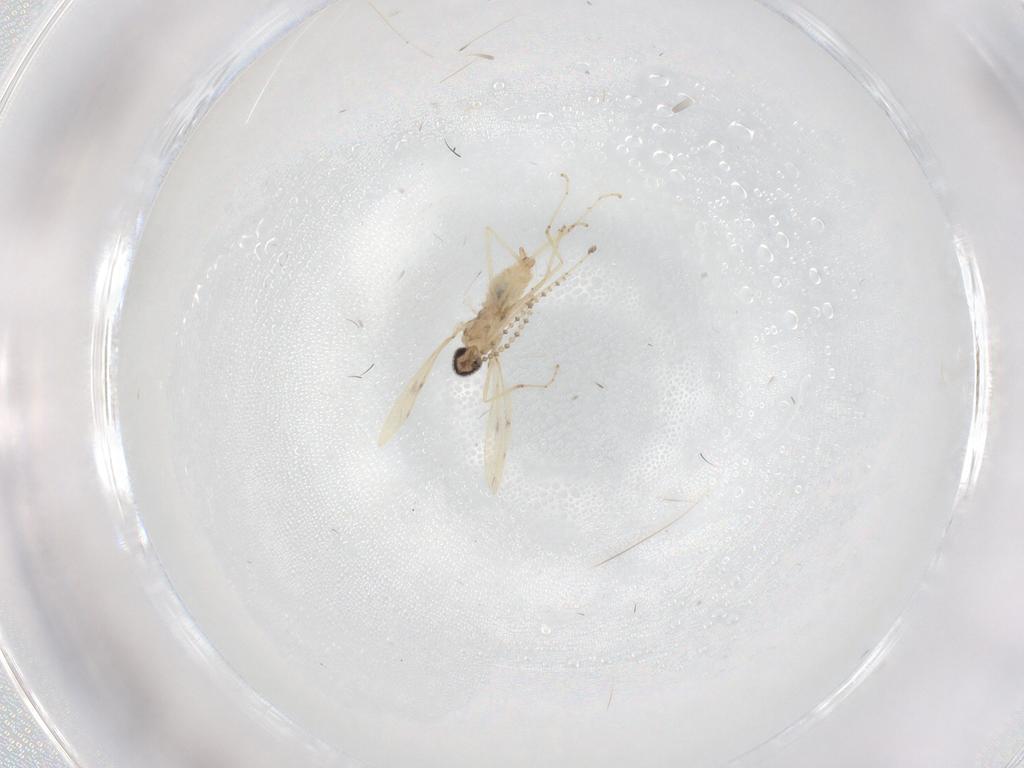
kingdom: Animalia
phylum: Arthropoda
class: Insecta
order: Diptera
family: Cecidomyiidae
